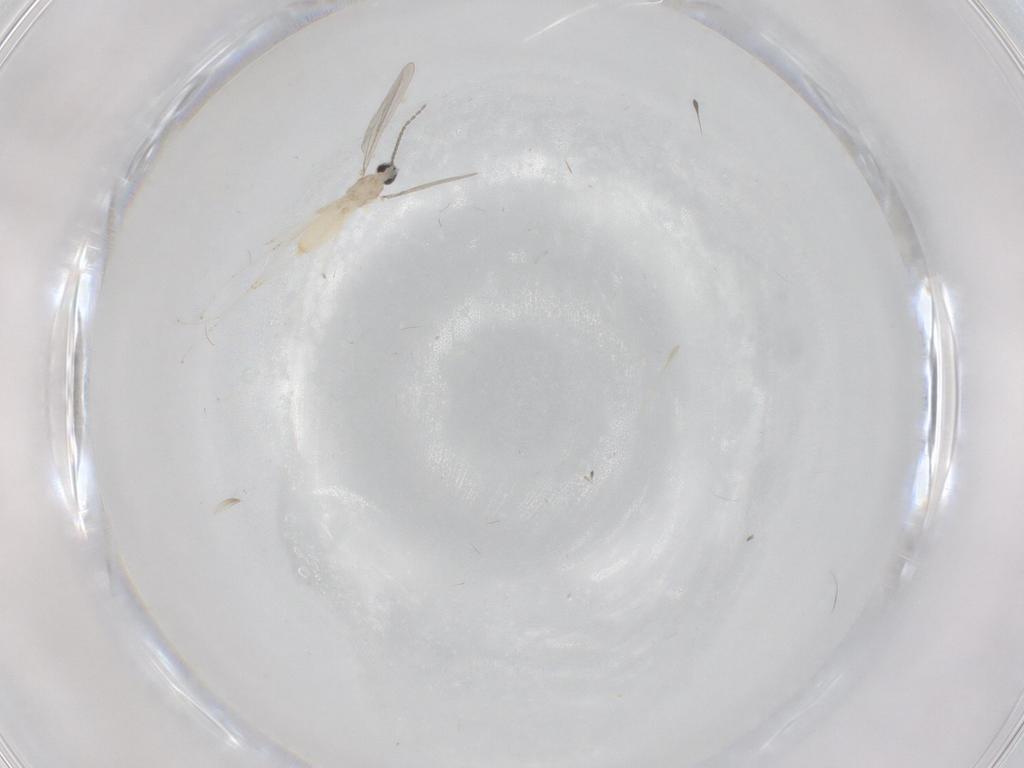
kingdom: Animalia
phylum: Arthropoda
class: Insecta
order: Diptera
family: Cecidomyiidae
